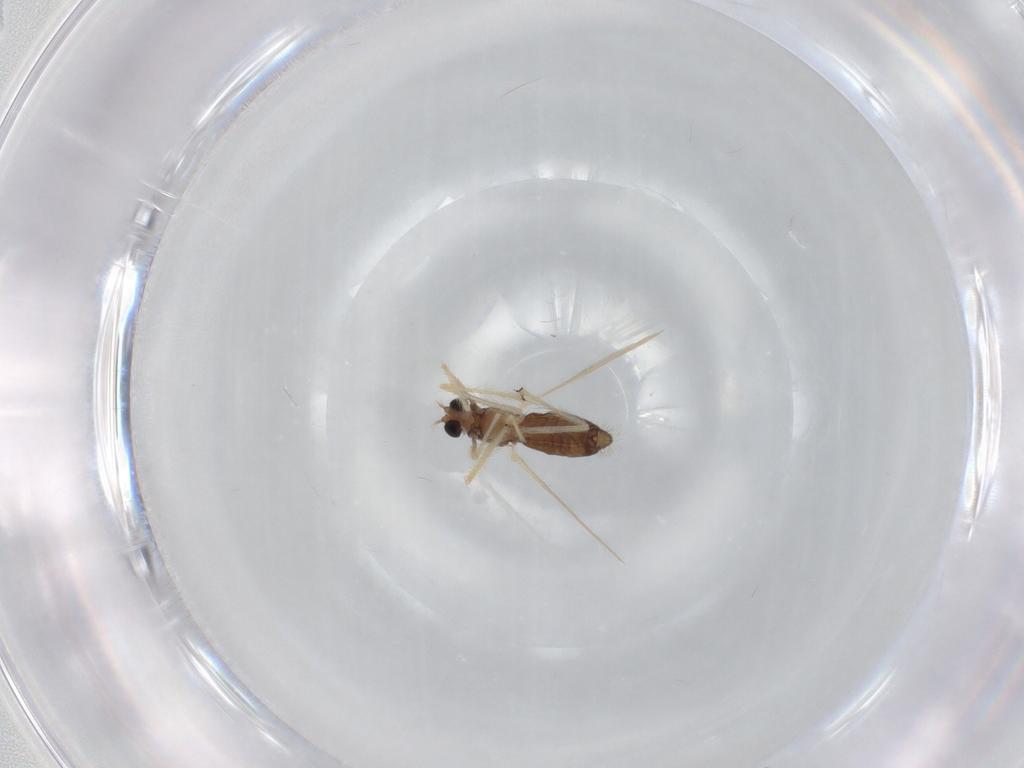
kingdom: Animalia
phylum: Arthropoda
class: Insecta
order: Diptera
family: Chironomidae
